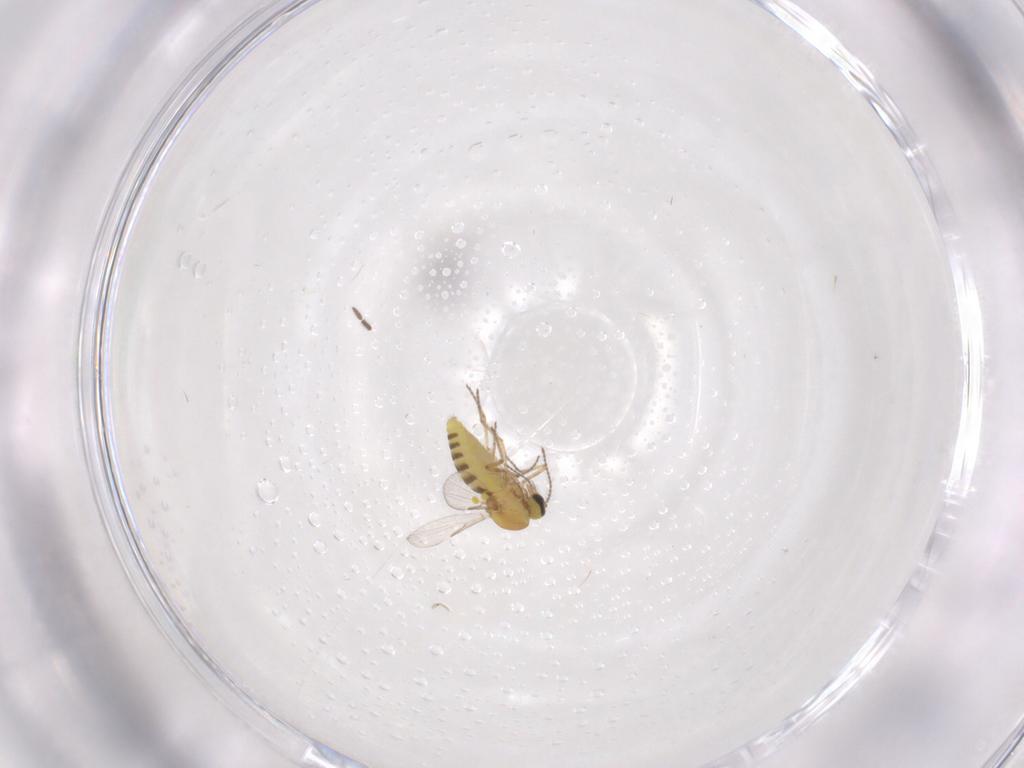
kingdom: Animalia
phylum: Arthropoda
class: Insecta
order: Diptera
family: Ceratopogonidae
